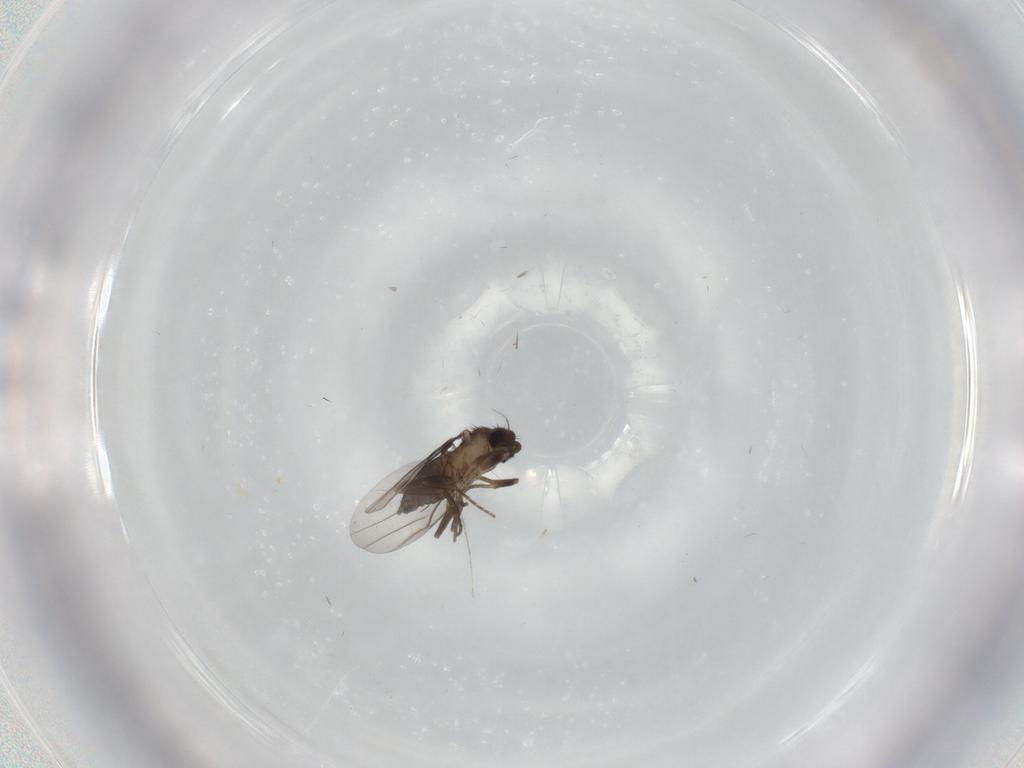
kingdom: Animalia
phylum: Arthropoda
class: Insecta
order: Diptera
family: Cecidomyiidae
